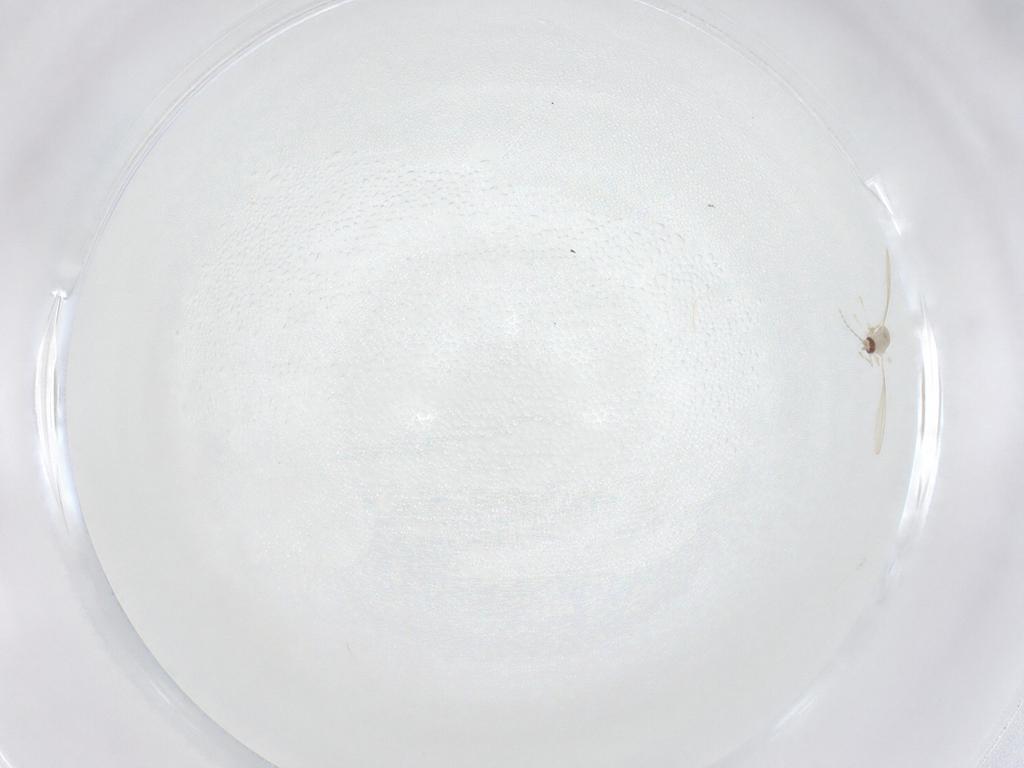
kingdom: Animalia
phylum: Arthropoda
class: Insecta
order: Diptera
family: Cecidomyiidae
